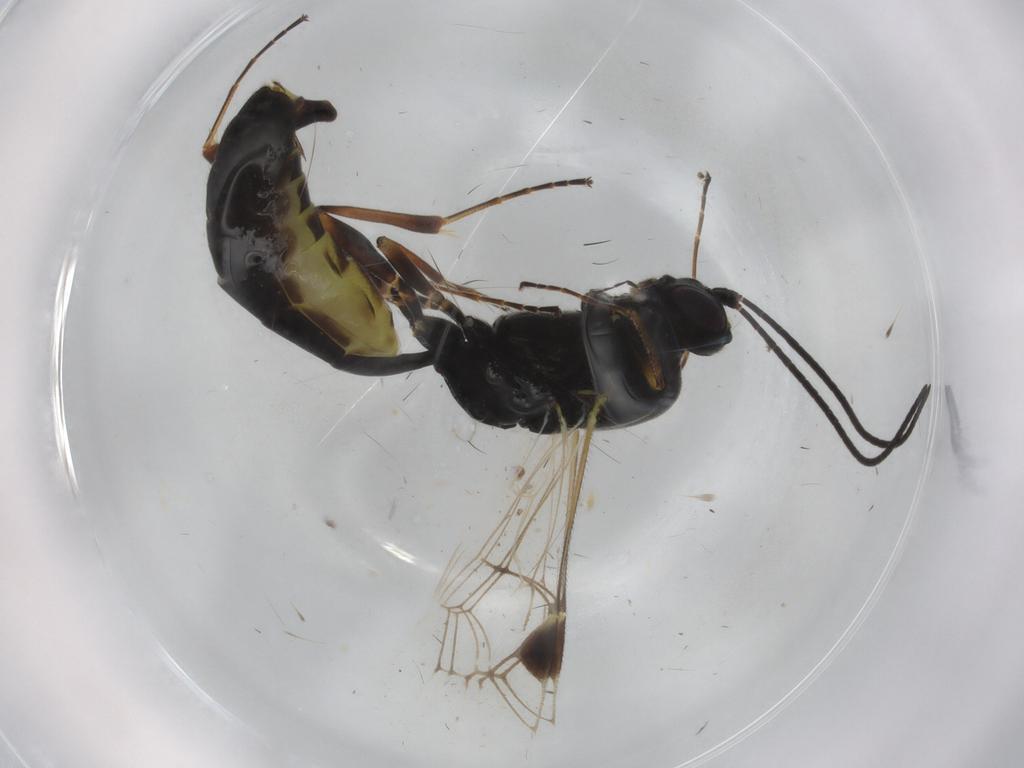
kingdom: Animalia
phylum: Arthropoda
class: Insecta
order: Hymenoptera
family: Ichneumonidae
